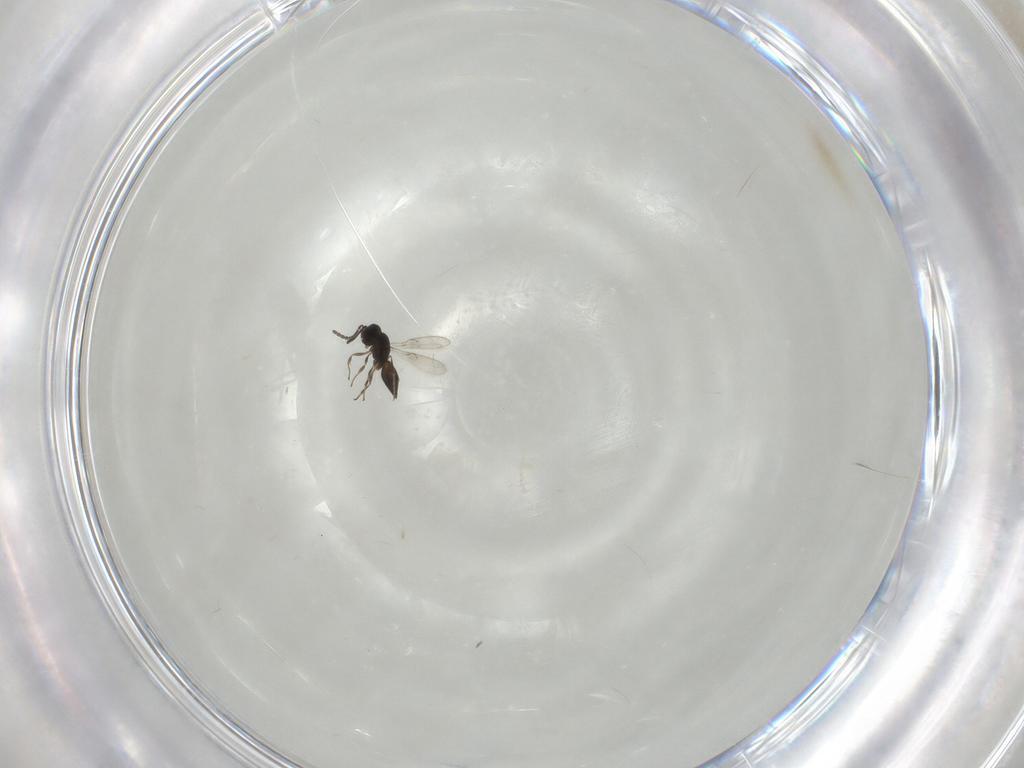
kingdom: Animalia
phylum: Arthropoda
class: Insecta
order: Hymenoptera
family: Scelionidae
